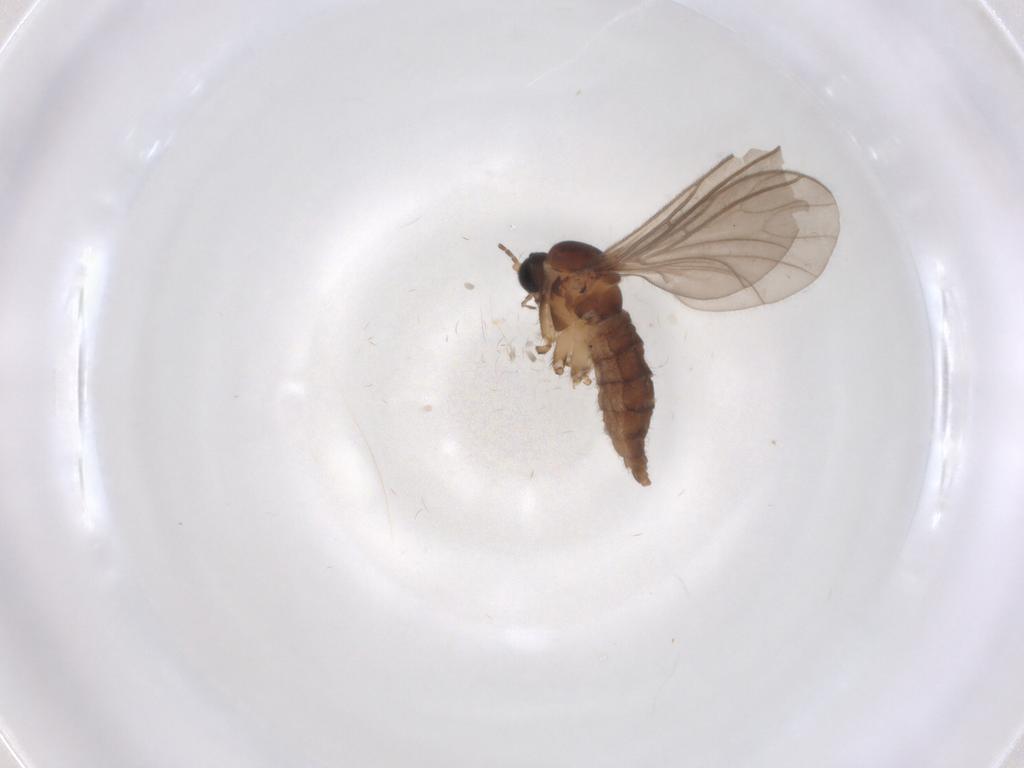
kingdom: Animalia
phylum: Arthropoda
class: Insecta
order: Diptera
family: Sciaridae
